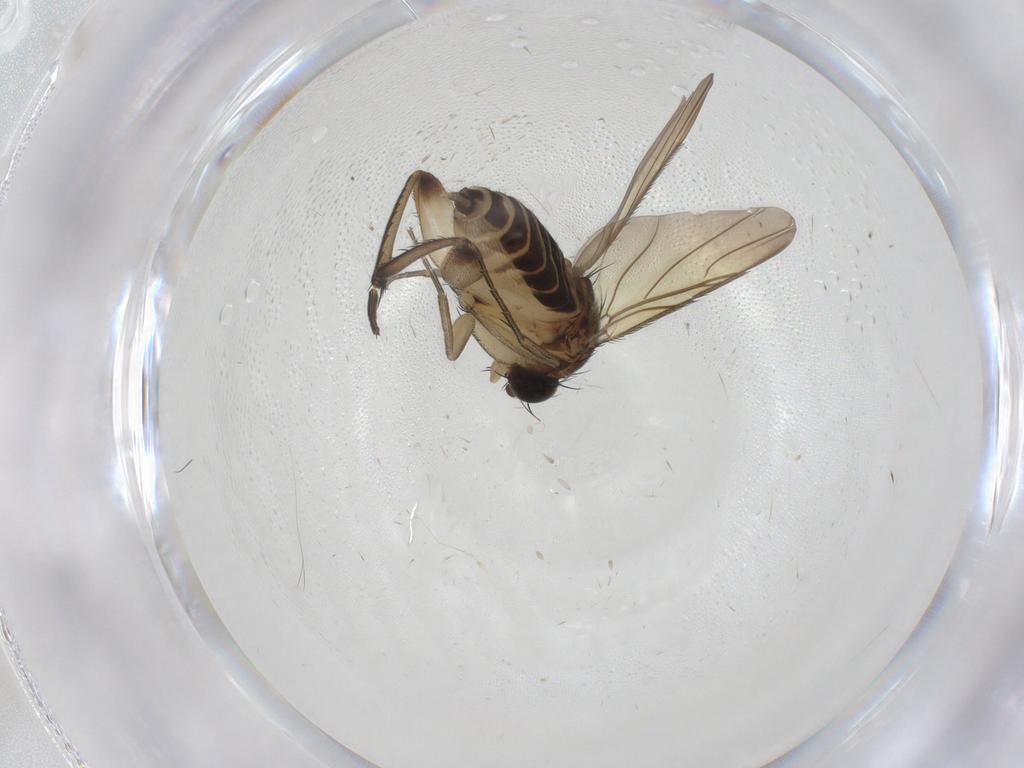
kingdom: Animalia
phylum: Arthropoda
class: Insecta
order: Diptera
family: Phoridae
